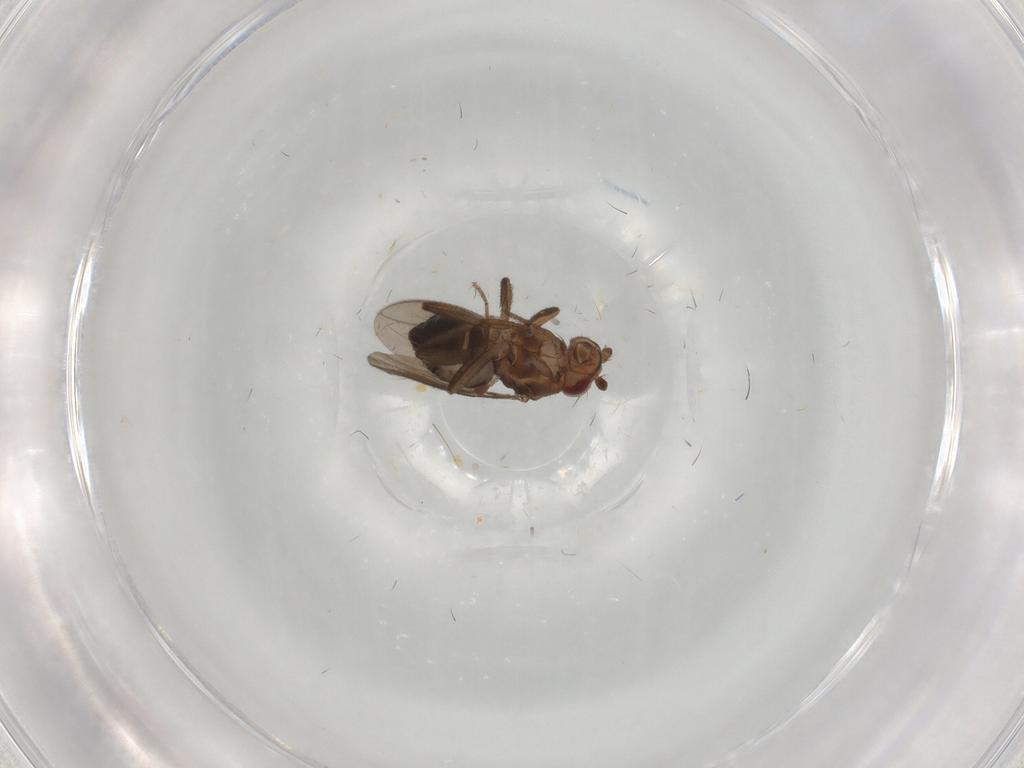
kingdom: Animalia
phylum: Arthropoda
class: Insecta
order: Diptera
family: Sphaeroceridae
